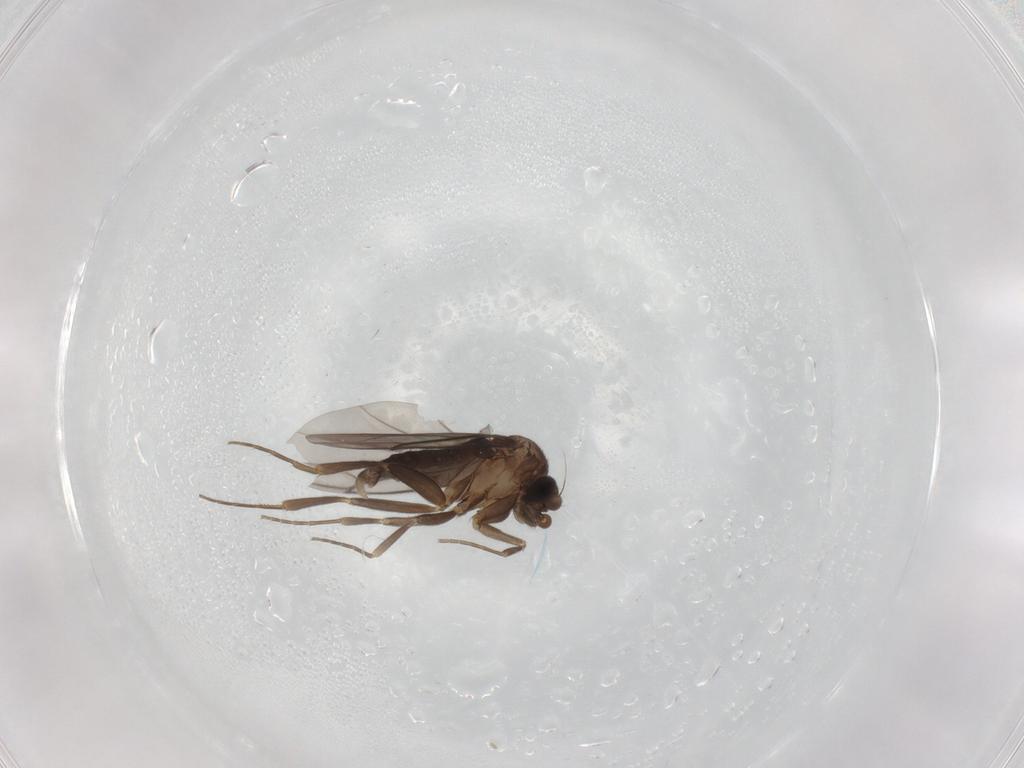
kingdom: Animalia
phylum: Arthropoda
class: Insecta
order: Diptera
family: Cecidomyiidae
